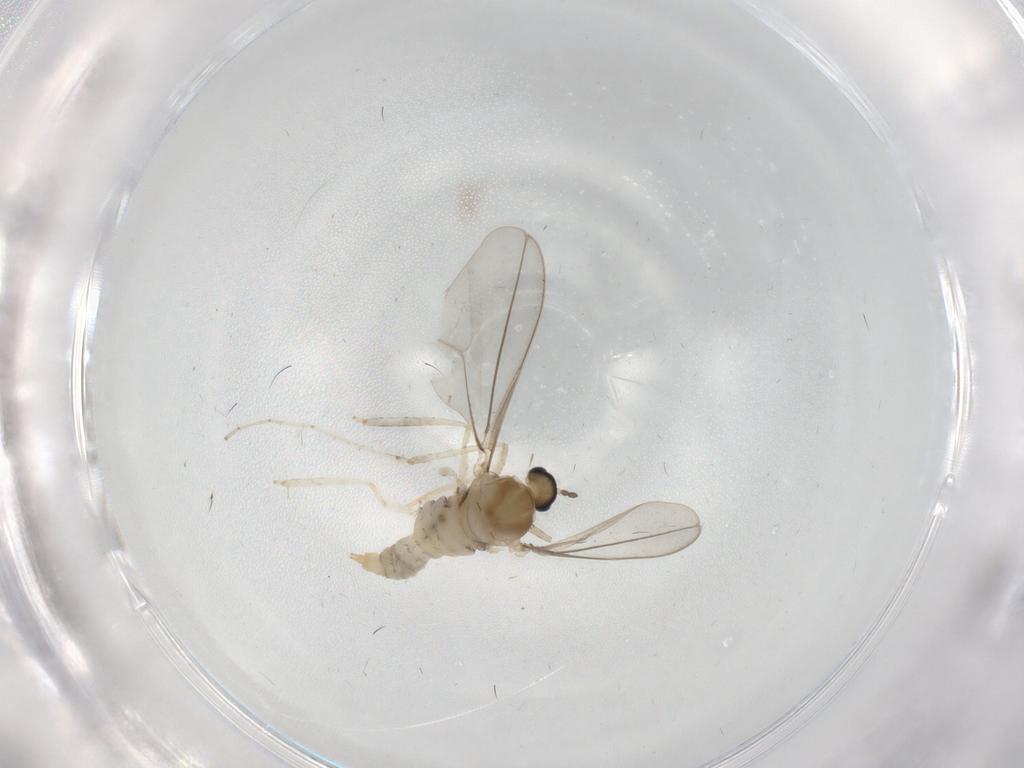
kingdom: Animalia
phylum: Arthropoda
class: Insecta
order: Diptera
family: Cecidomyiidae
